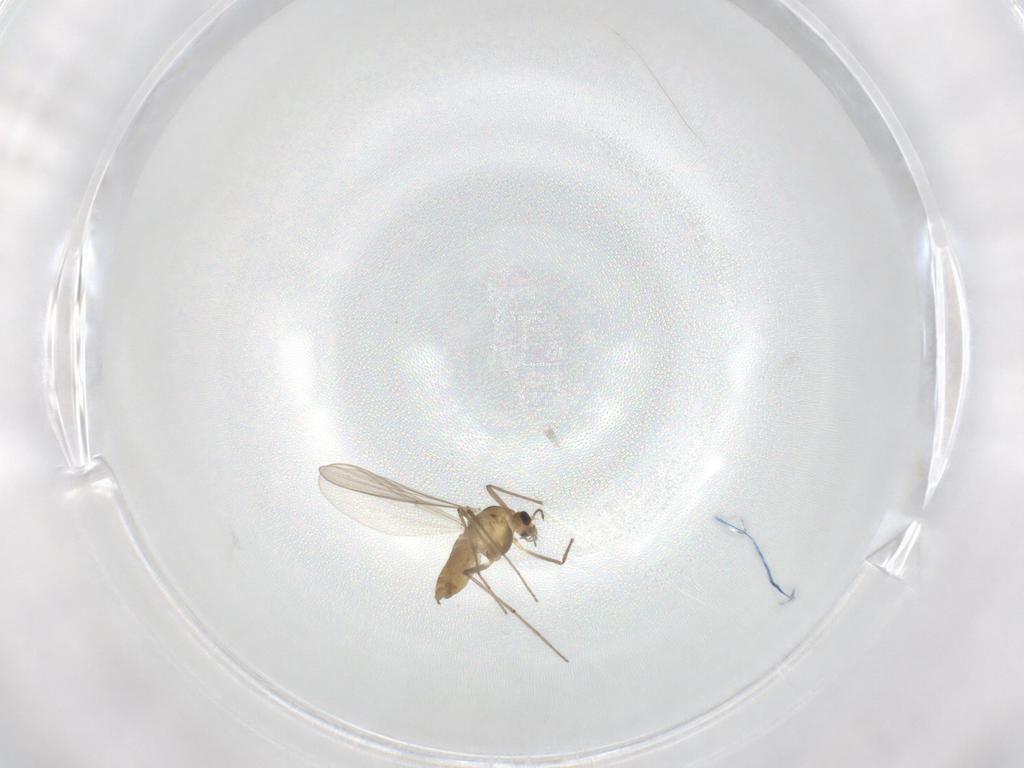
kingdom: Animalia
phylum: Arthropoda
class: Insecta
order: Diptera
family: Chironomidae
